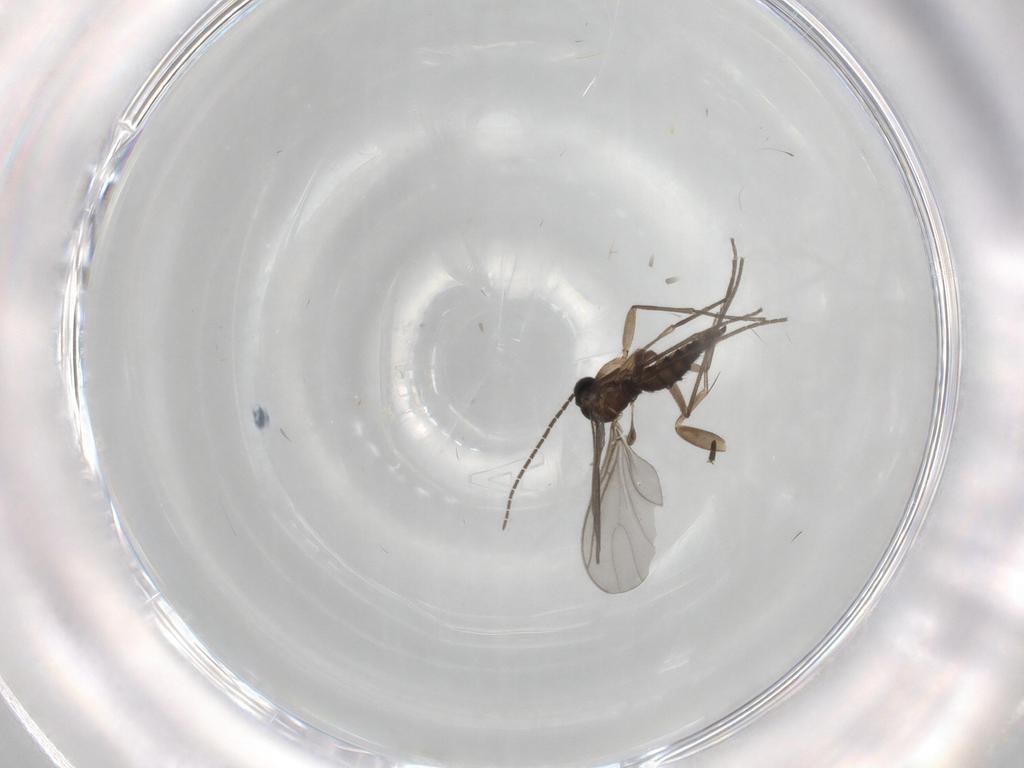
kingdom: Animalia
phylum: Arthropoda
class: Insecta
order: Diptera
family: Sciaridae
